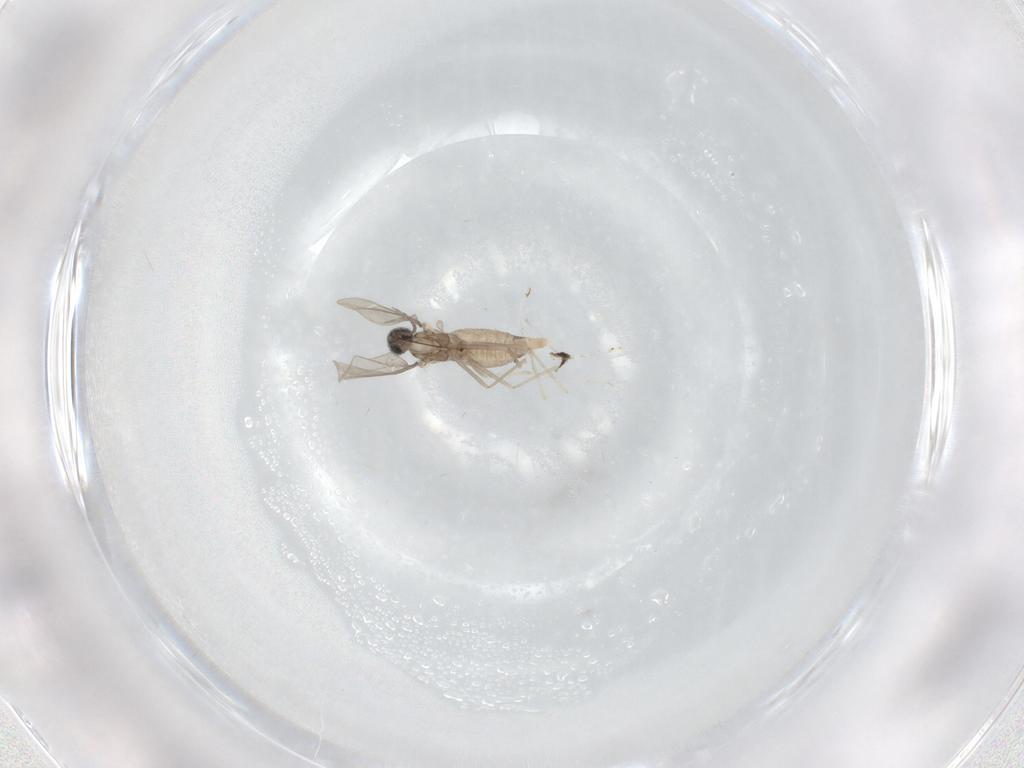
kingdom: Animalia
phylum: Arthropoda
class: Insecta
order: Diptera
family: Cecidomyiidae
